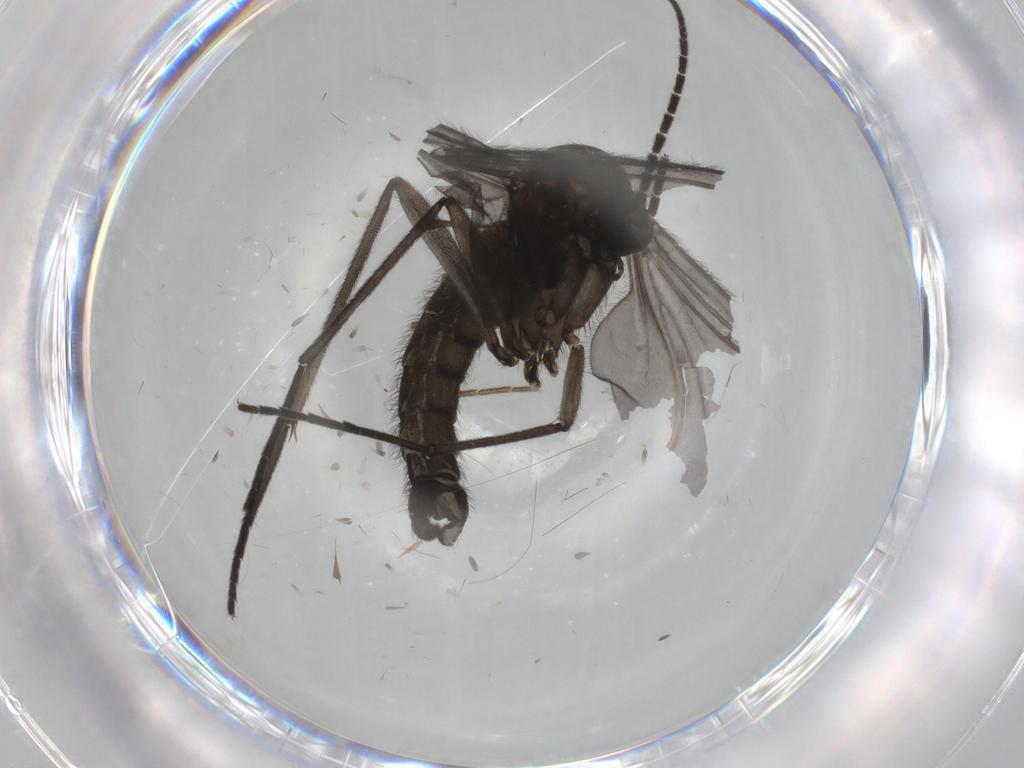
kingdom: Animalia
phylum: Arthropoda
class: Insecta
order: Diptera
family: Sciaridae
